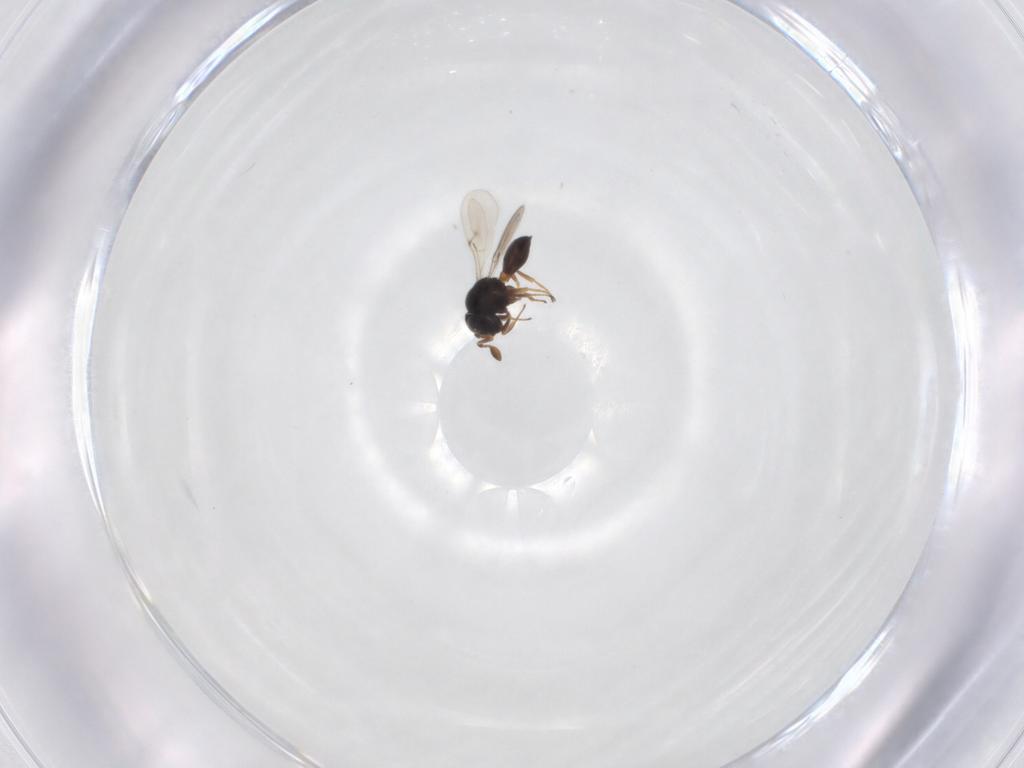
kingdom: Animalia
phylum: Arthropoda
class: Insecta
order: Hymenoptera
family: Scelionidae
